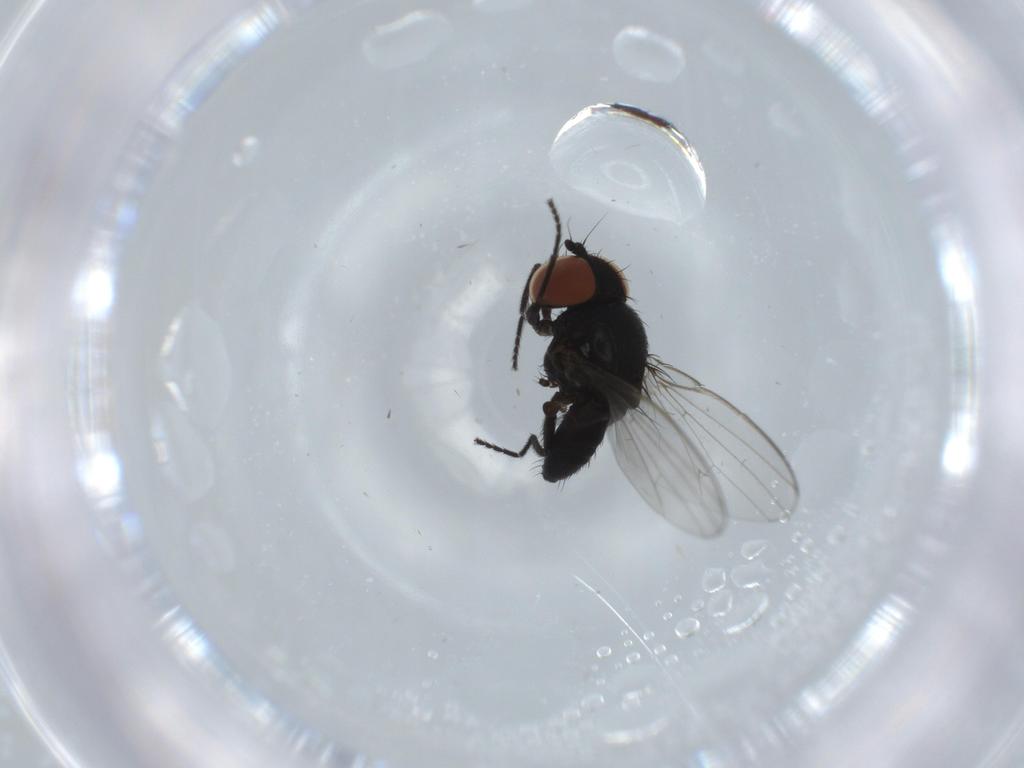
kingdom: Animalia
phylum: Arthropoda
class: Insecta
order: Diptera
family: Milichiidae
